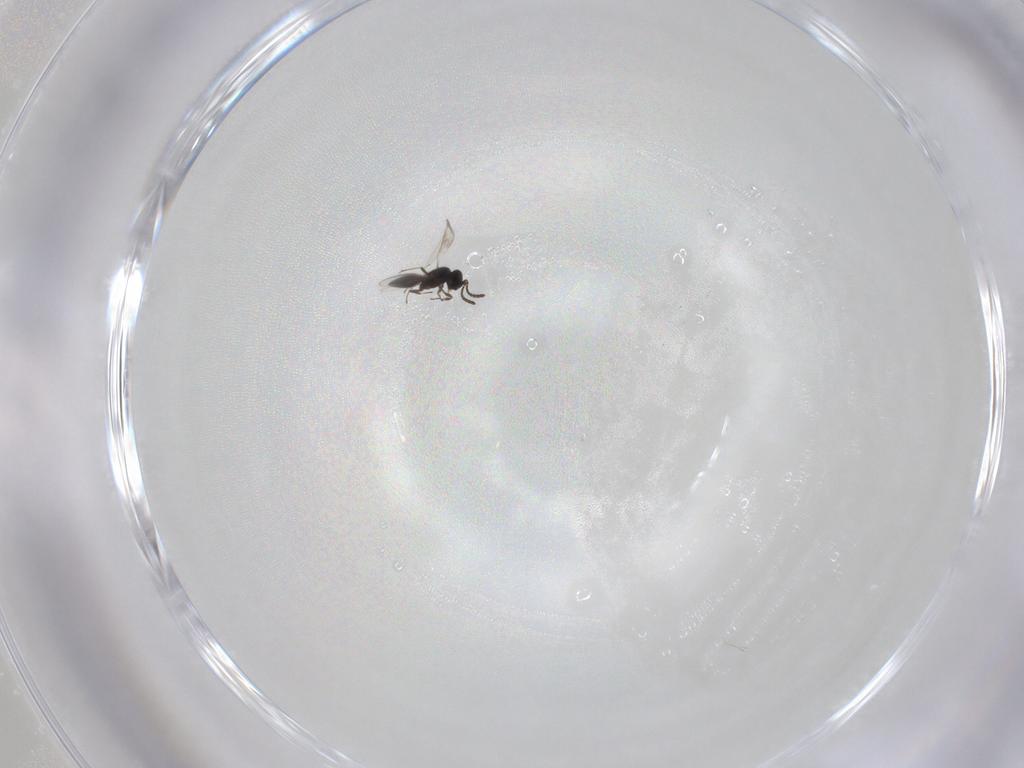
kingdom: Animalia
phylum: Arthropoda
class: Insecta
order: Hymenoptera
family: Scelionidae
